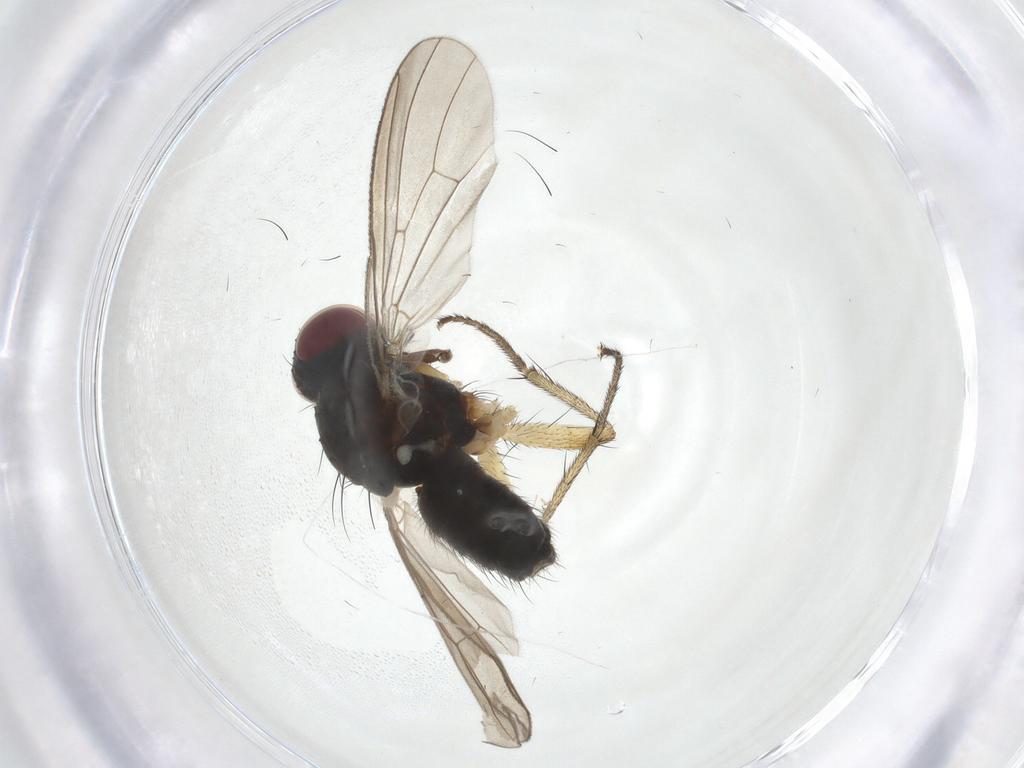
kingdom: Animalia
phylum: Arthropoda
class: Insecta
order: Diptera
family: Muscidae
